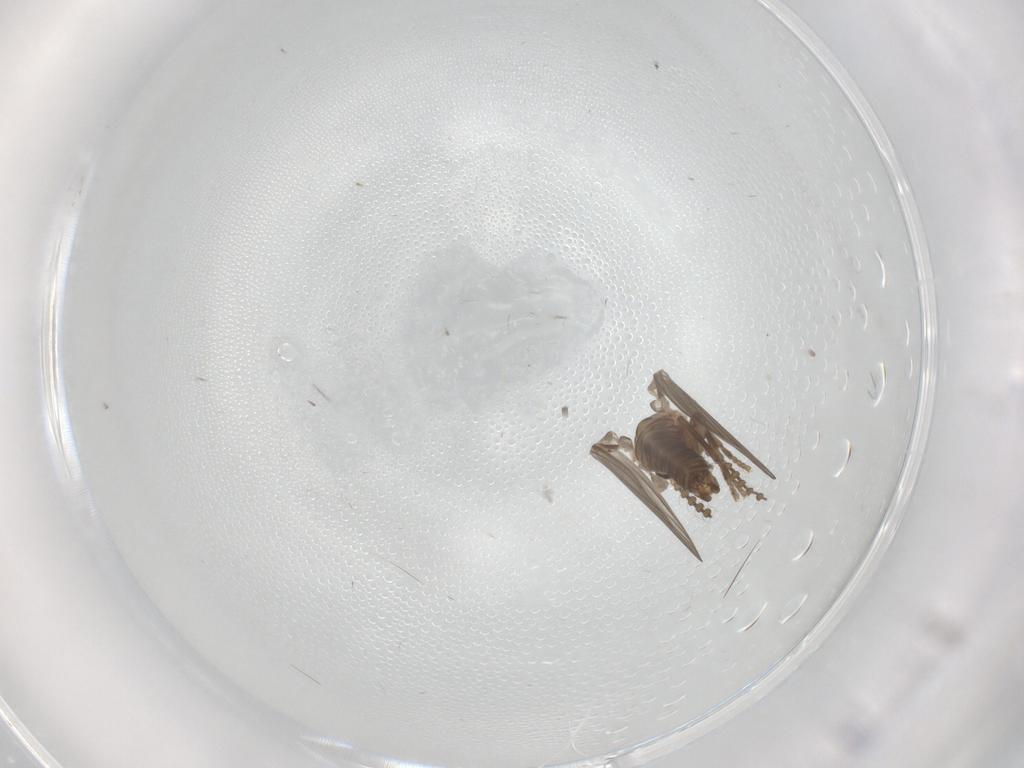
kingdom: Animalia
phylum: Arthropoda
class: Insecta
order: Diptera
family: Psychodidae
